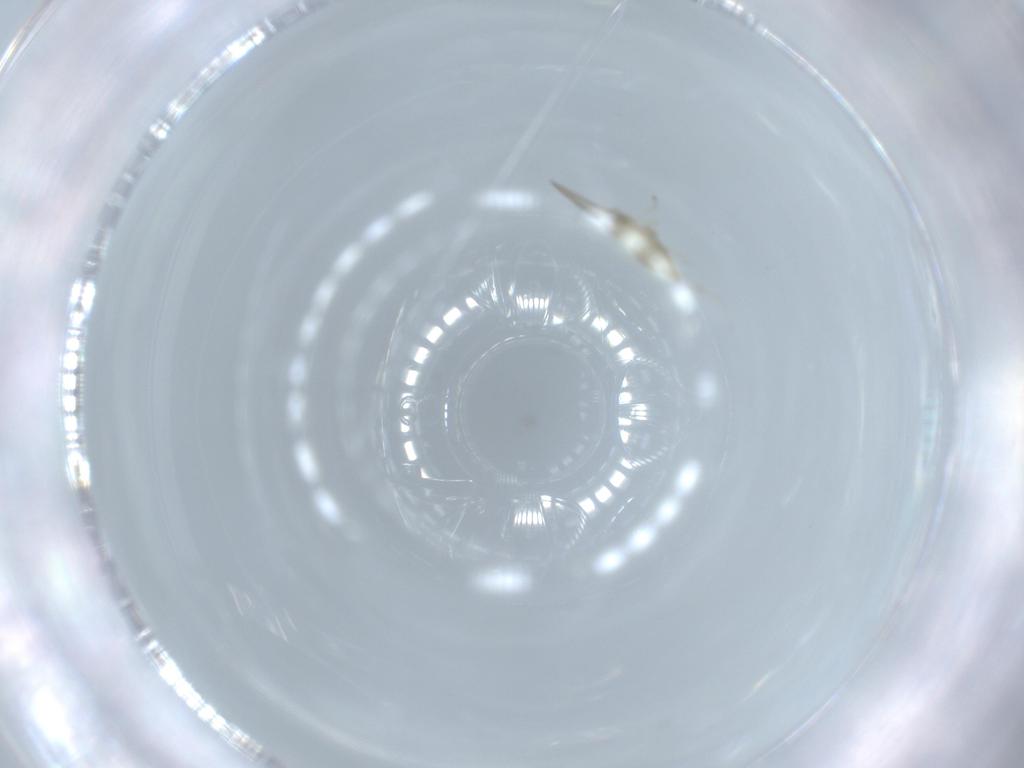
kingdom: Animalia
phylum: Arthropoda
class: Insecta
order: Diptera
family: Cecidomyiidae
